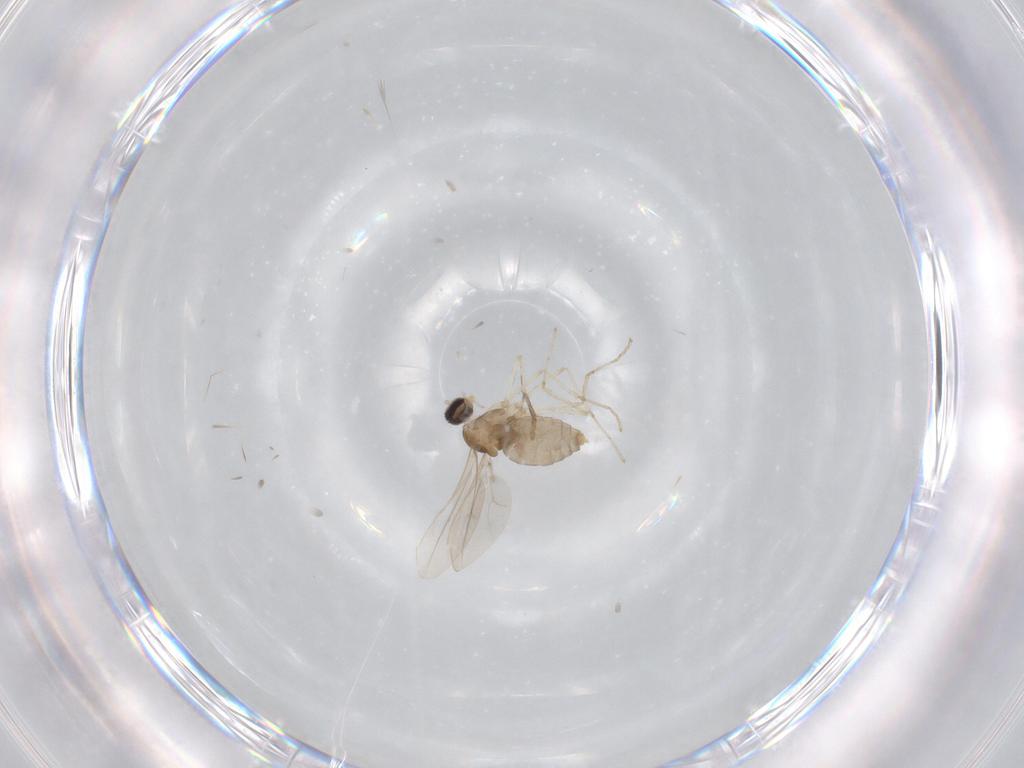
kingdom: Animalia
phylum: Arthropoda
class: Insecta
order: Diptera
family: Cecidomyiidae
